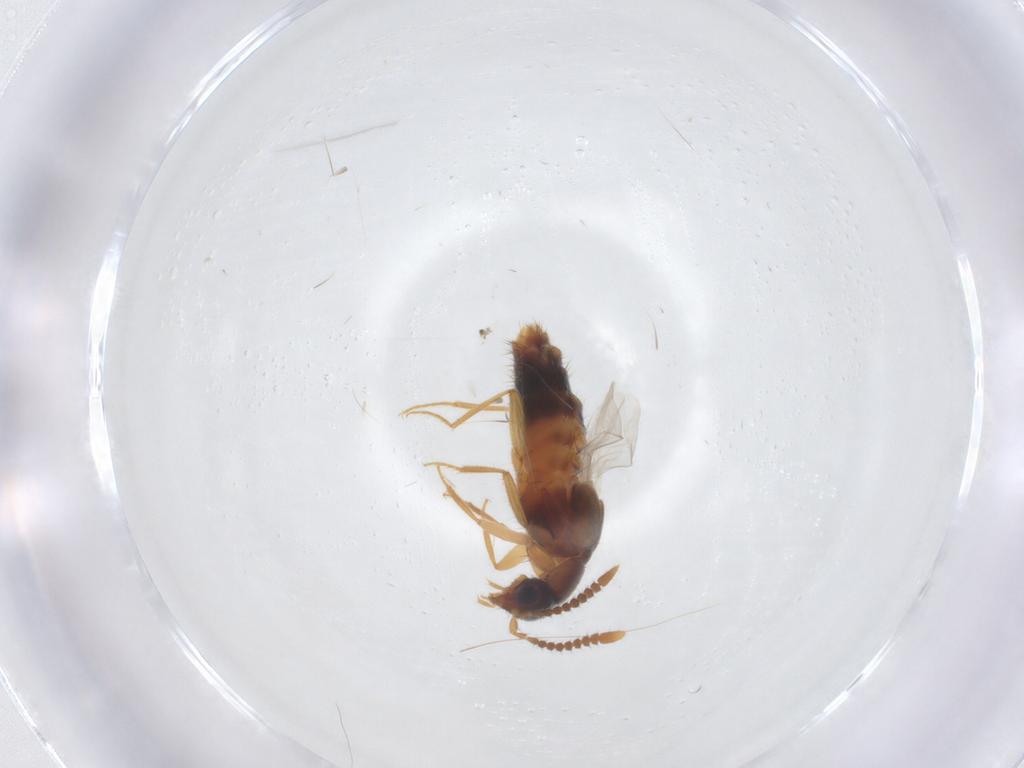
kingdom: Animalia
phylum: Arthropoda
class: Insecta
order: Coleoptera
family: Staphylinidae
